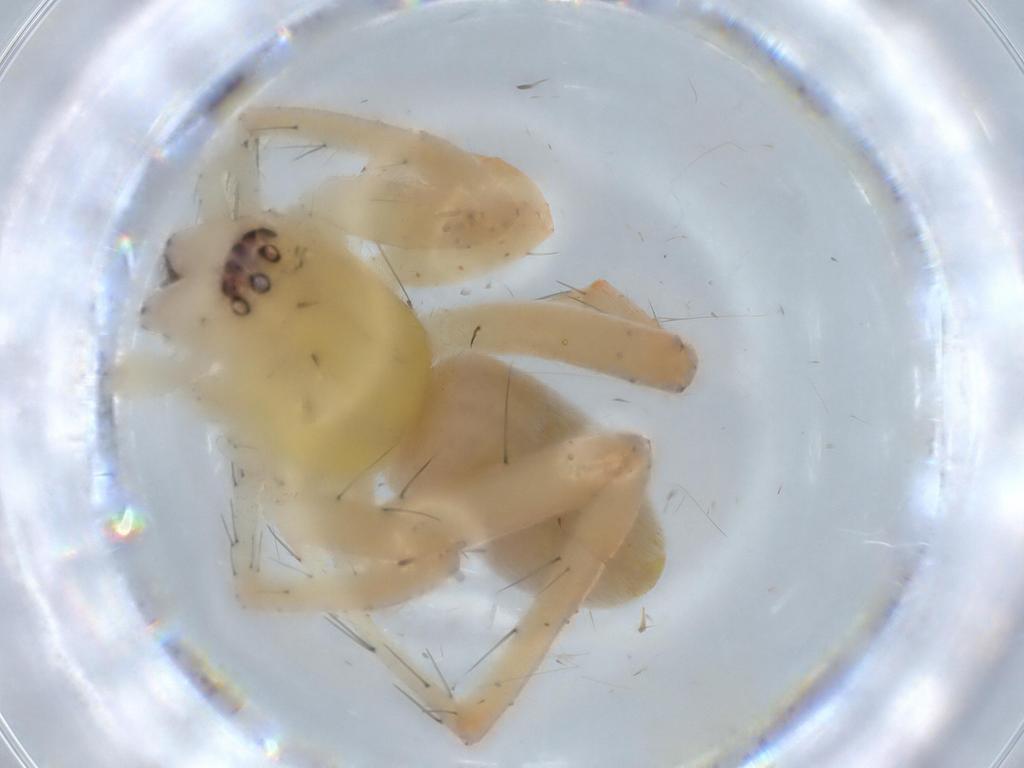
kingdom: Animalia
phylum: Arthropoda
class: Arachnida
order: Araneae
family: Anyphaenidae
